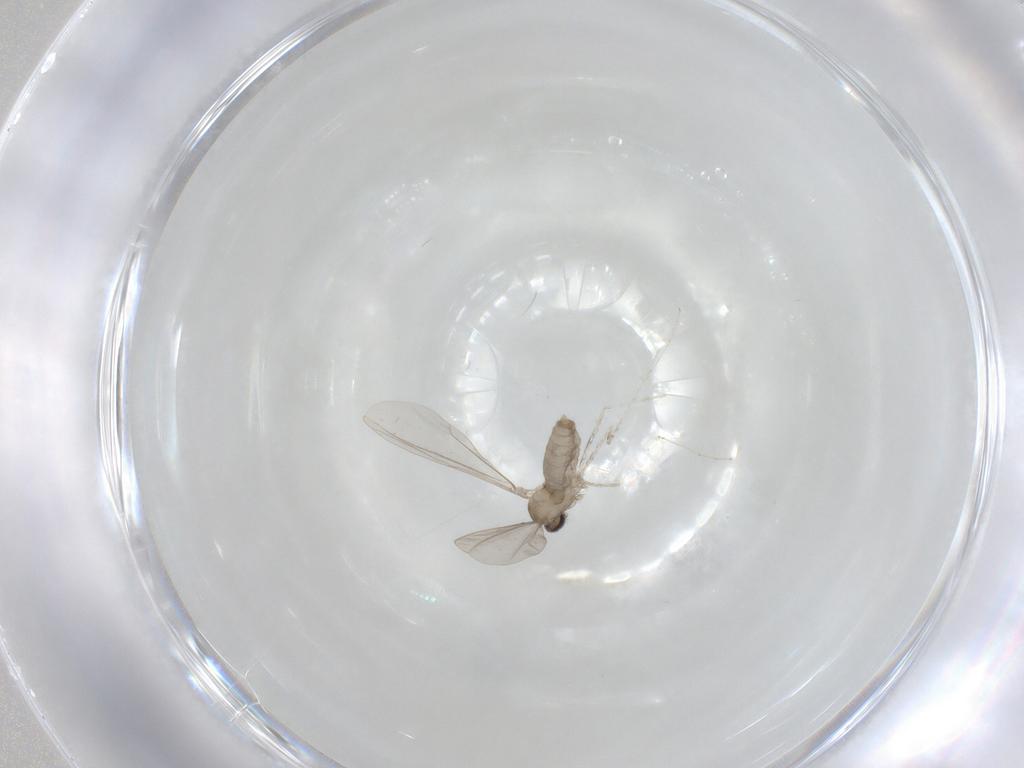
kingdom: Animalia
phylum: Arthropoda
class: Insecta
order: Diptera
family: Cecidomyiidae
